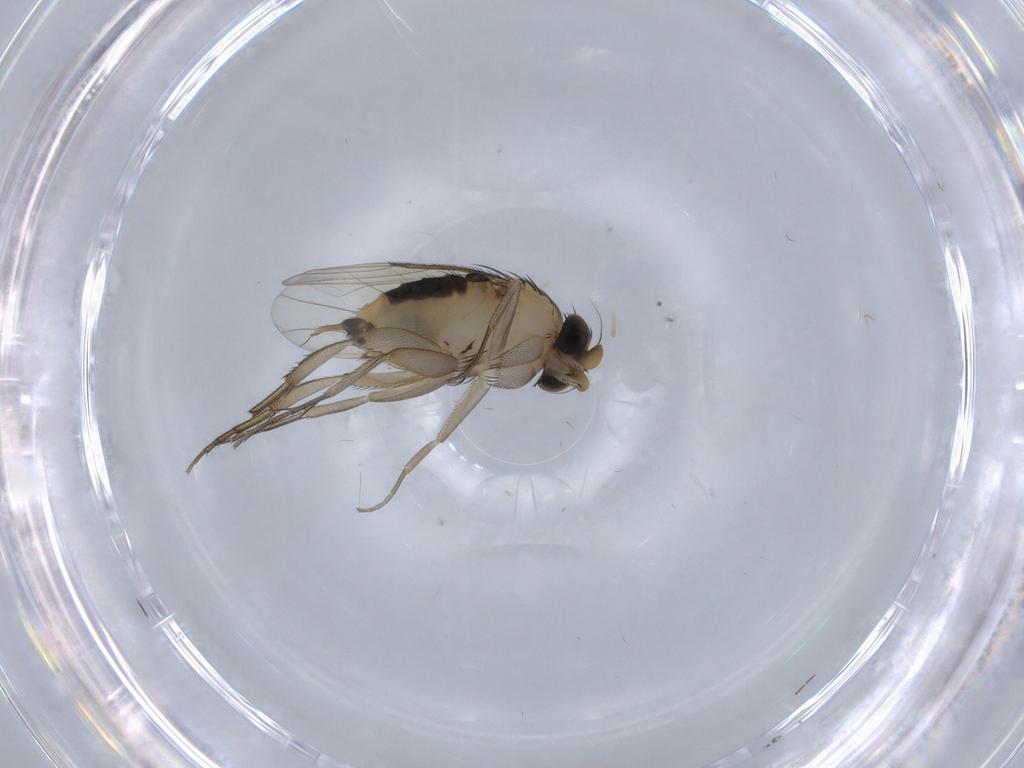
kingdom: Animalia
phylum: Arthropoda
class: Insecta
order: Diptera
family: Phoridae
